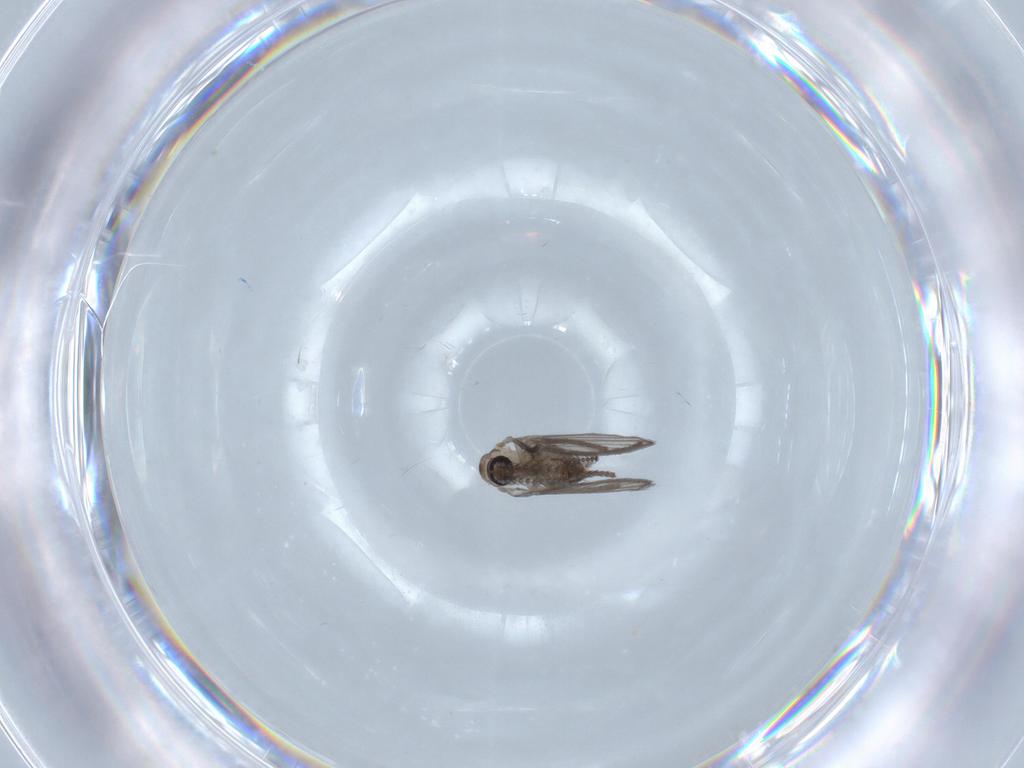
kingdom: Animalia
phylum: Arthropoda
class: Insecta
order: Diptera
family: Psychodidae
